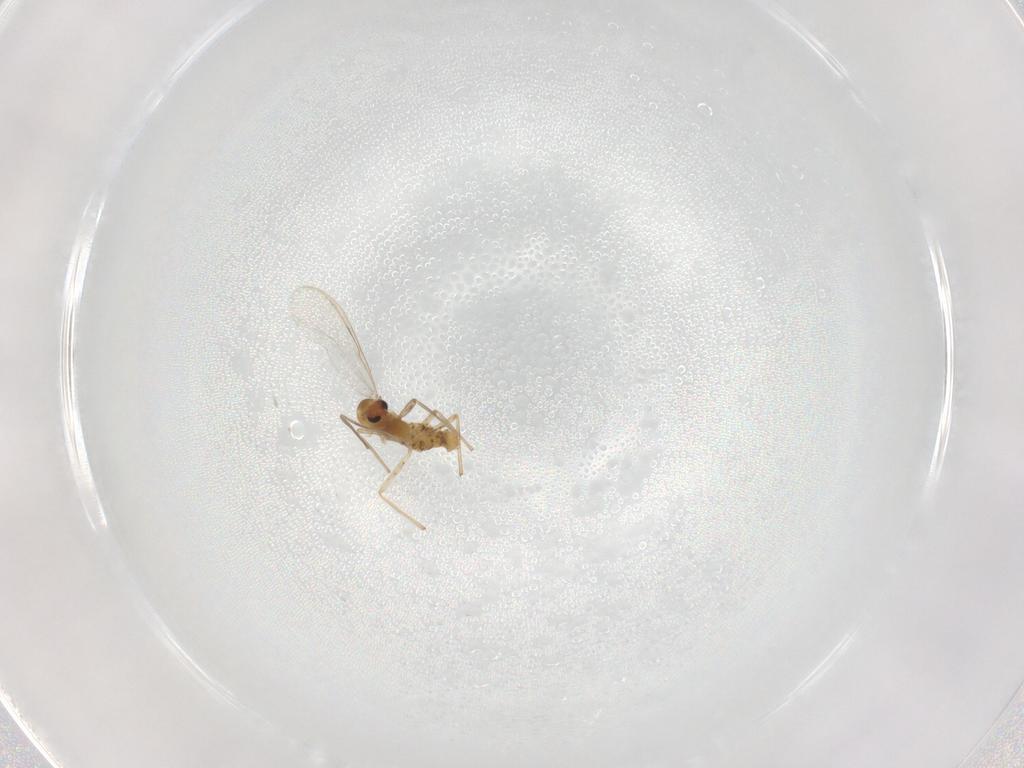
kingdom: Animalia
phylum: Arthropoda
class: Insecta
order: Diptera
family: Chironomidae
